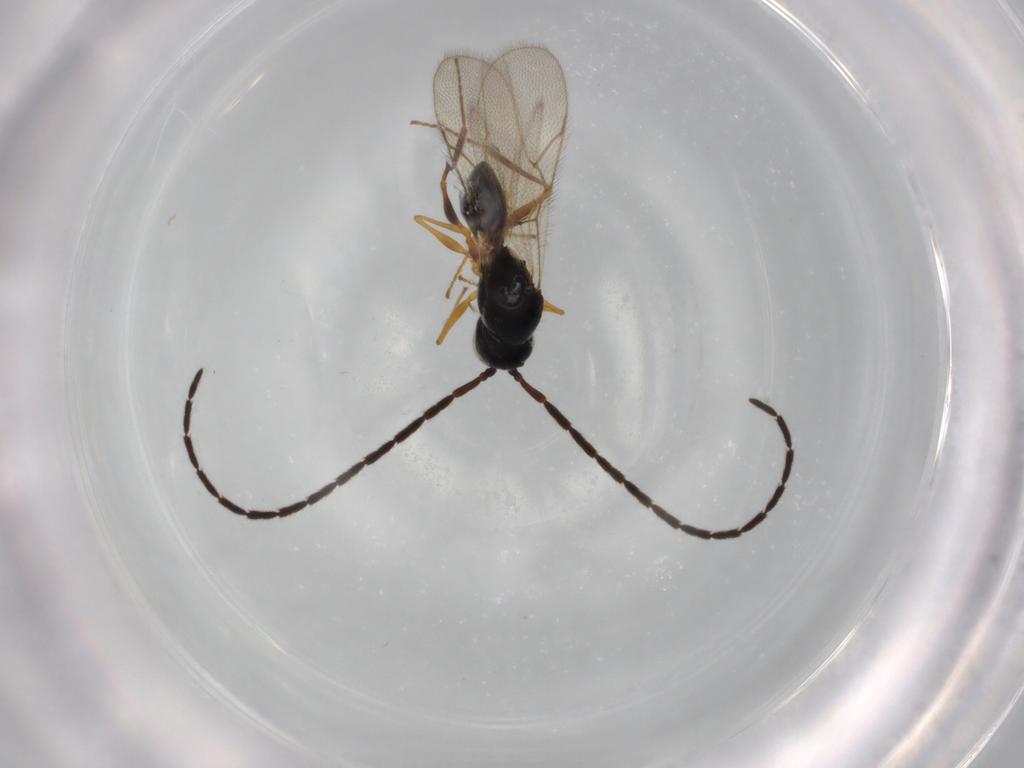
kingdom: Animalia
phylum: Arthropoda
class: Insecta
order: Hymenoptera
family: Figitidae
